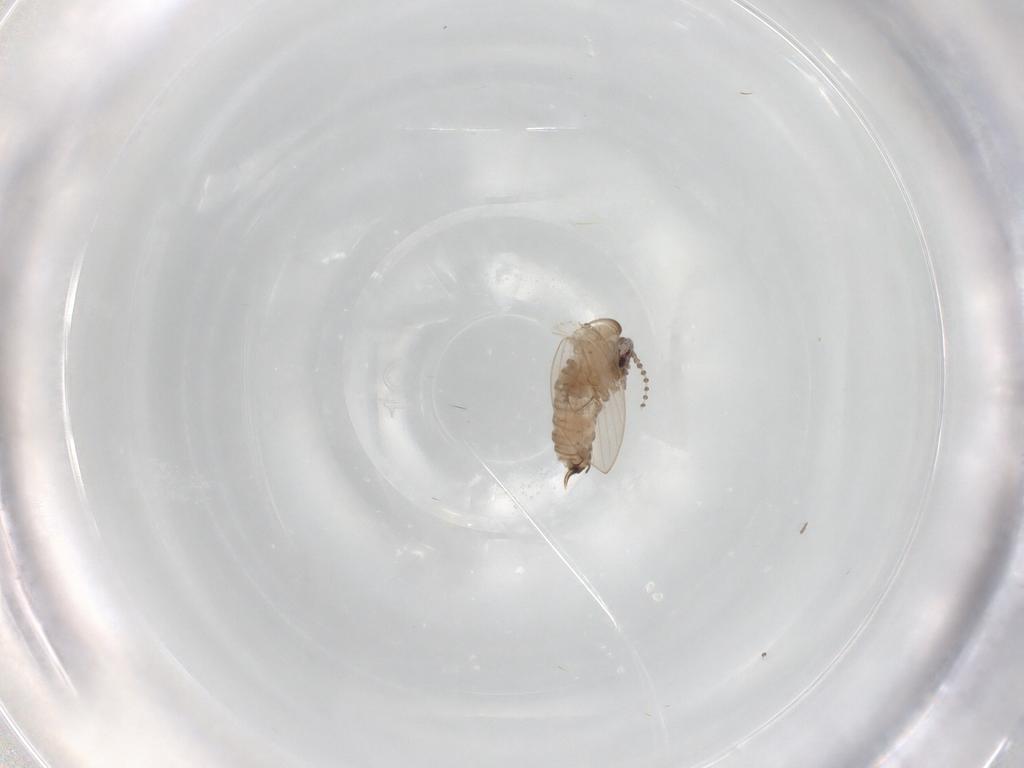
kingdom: Animalia
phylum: Arthropoda
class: Insecta
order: Diptera
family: Psychodidae
